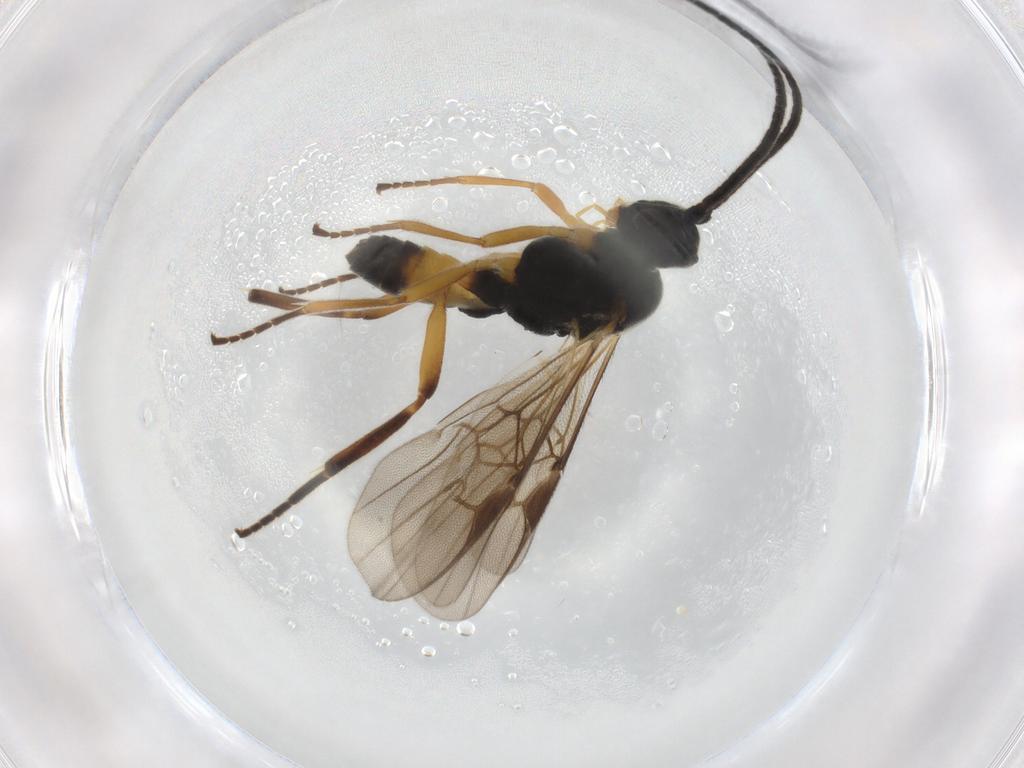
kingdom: Animalia
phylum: Arthropoda
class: Insecta
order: Hymenoptera
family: Braconidae
